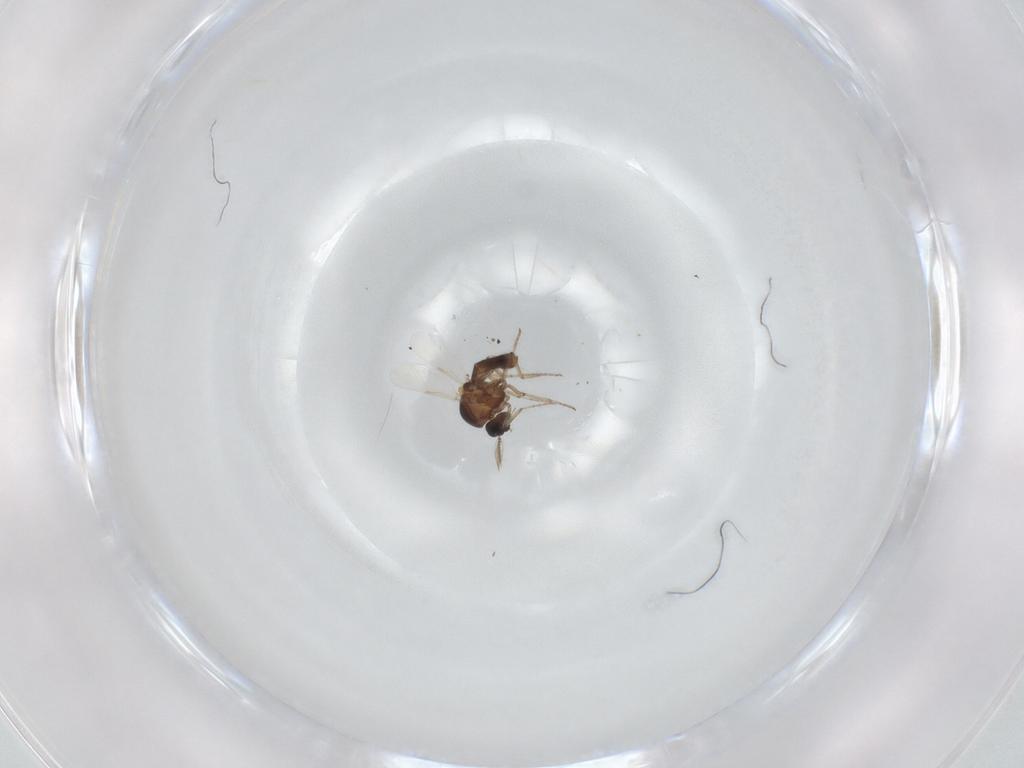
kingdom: Animalia
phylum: Arthropoda
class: Insecta
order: Diptera
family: Ceratopogonidae
